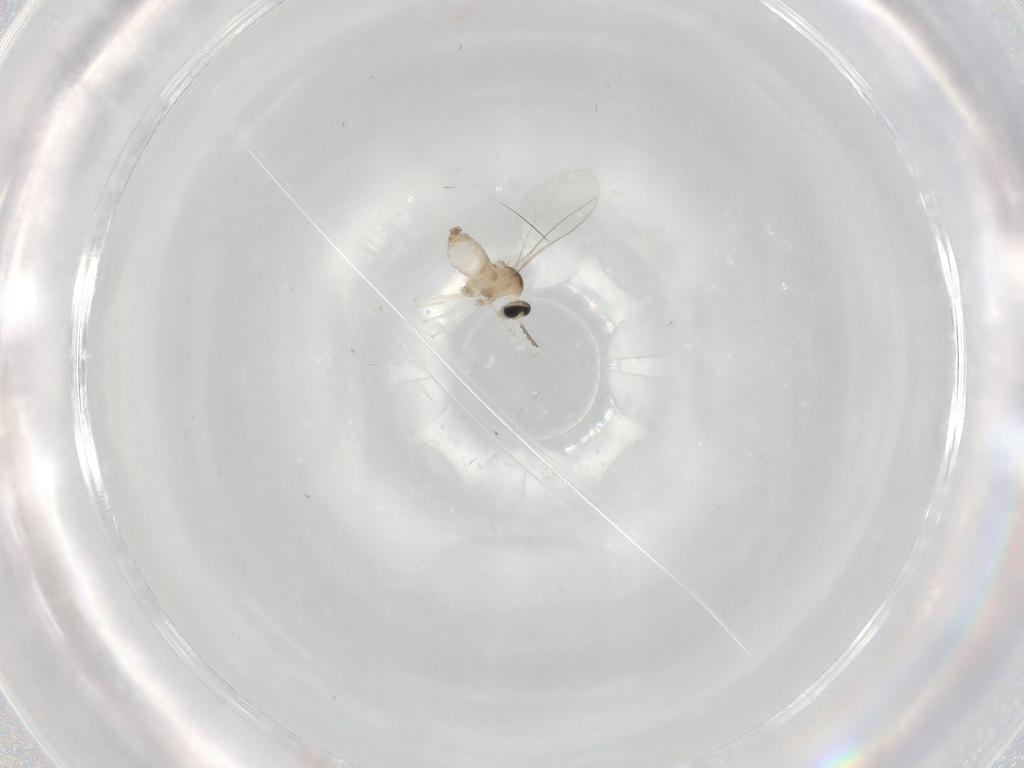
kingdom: Animalia
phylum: Arthropoda
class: Insecta
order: Diptera
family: Cecidomyiidae
